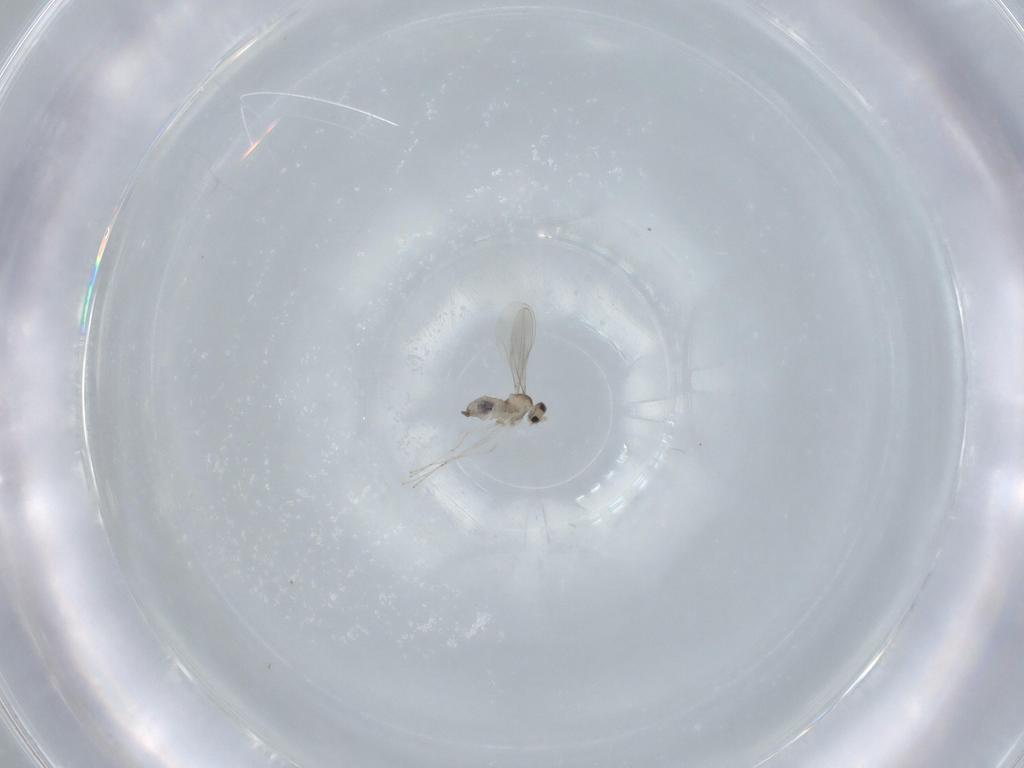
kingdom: Animalia
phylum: Arthropoda
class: Insecta
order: Diptera
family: Cecidomyiidae
